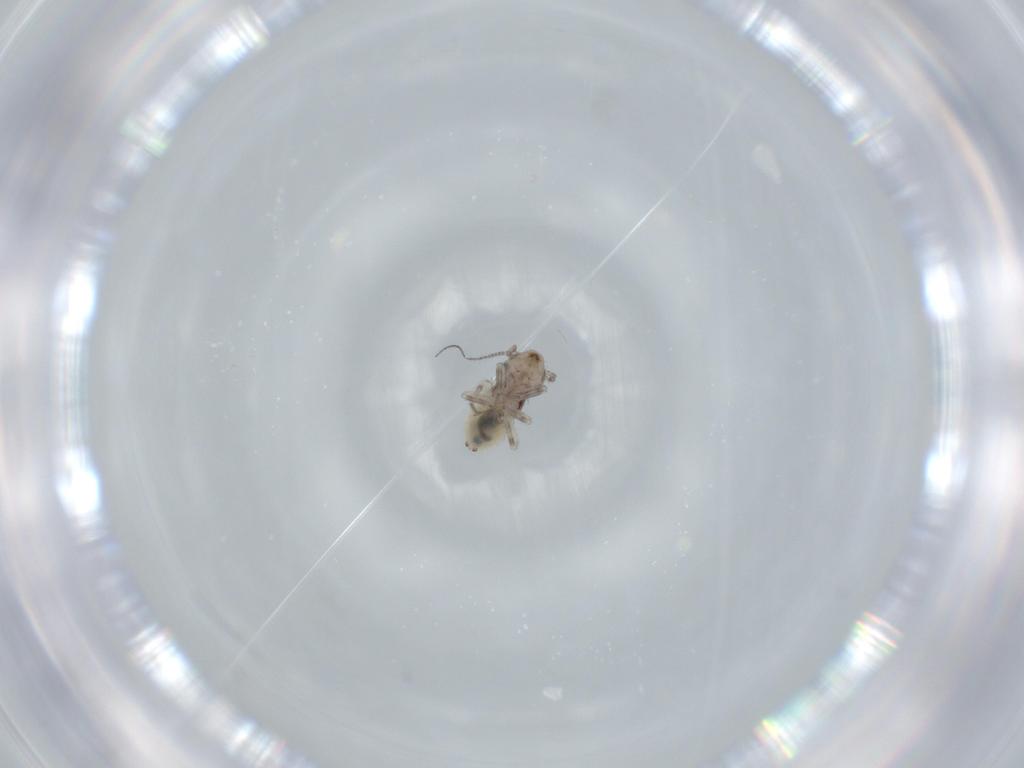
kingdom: Animalia
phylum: Arthropoda
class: Insecta
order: Psocodea
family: Lepidopsocidae
